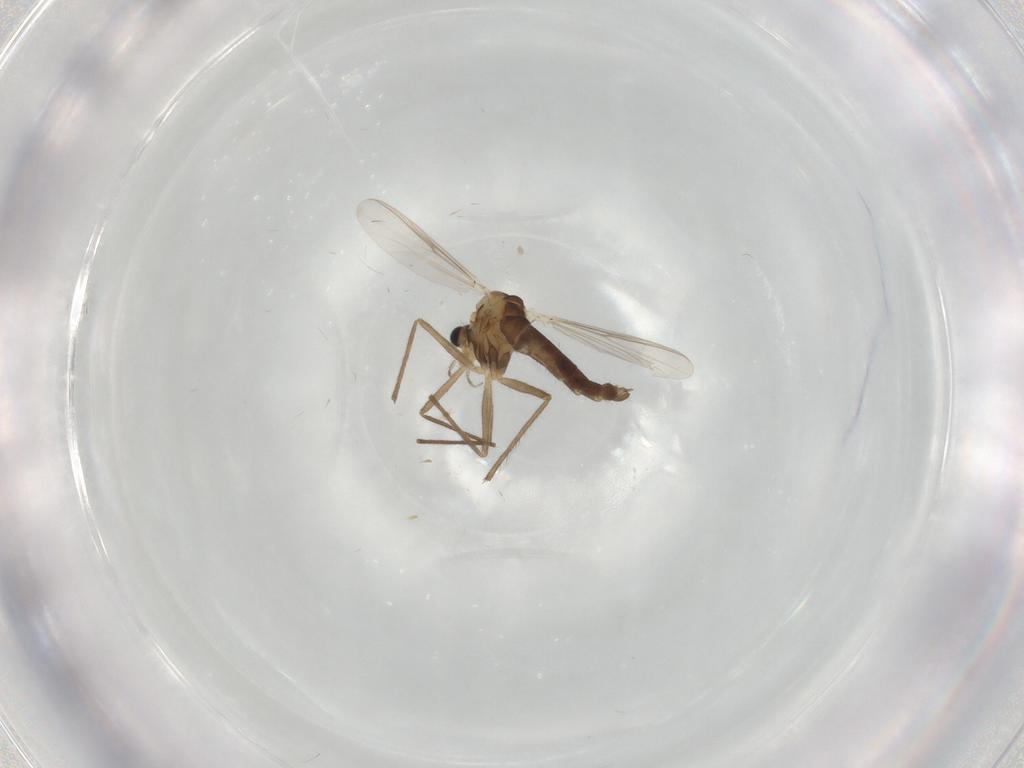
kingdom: Animalia
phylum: Arthropoda
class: Insecta
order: Diptera
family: Chironomidae
